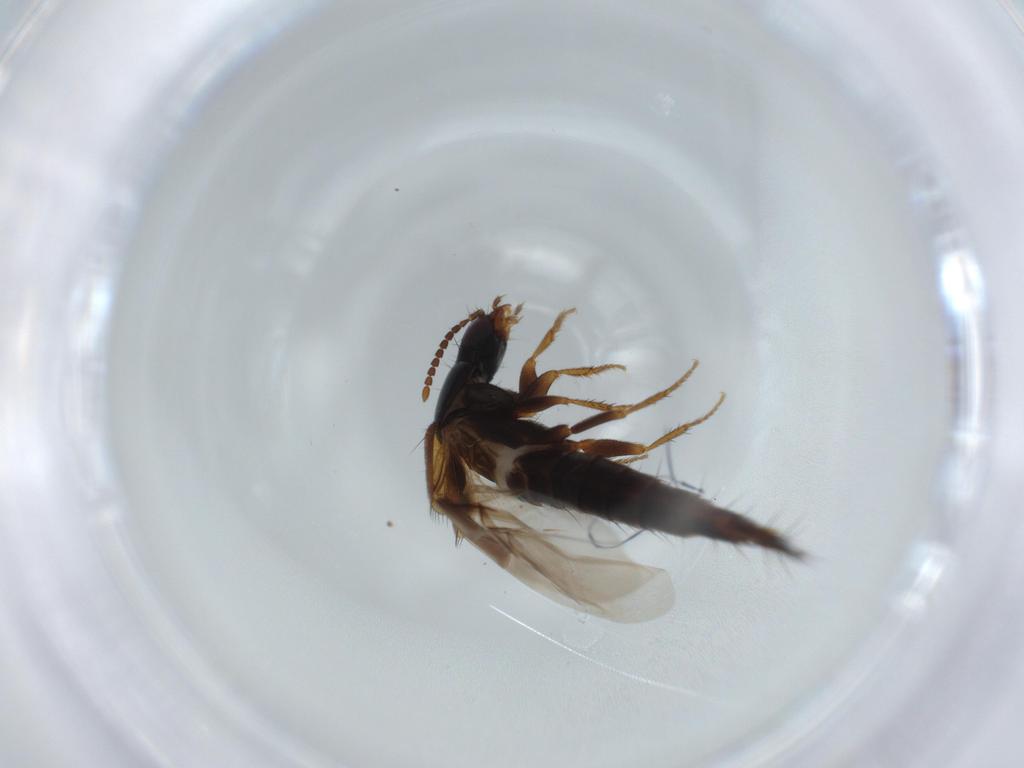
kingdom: Animalia
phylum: Arthropoda
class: Insecta
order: Coleoptera
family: Staphylinidae
